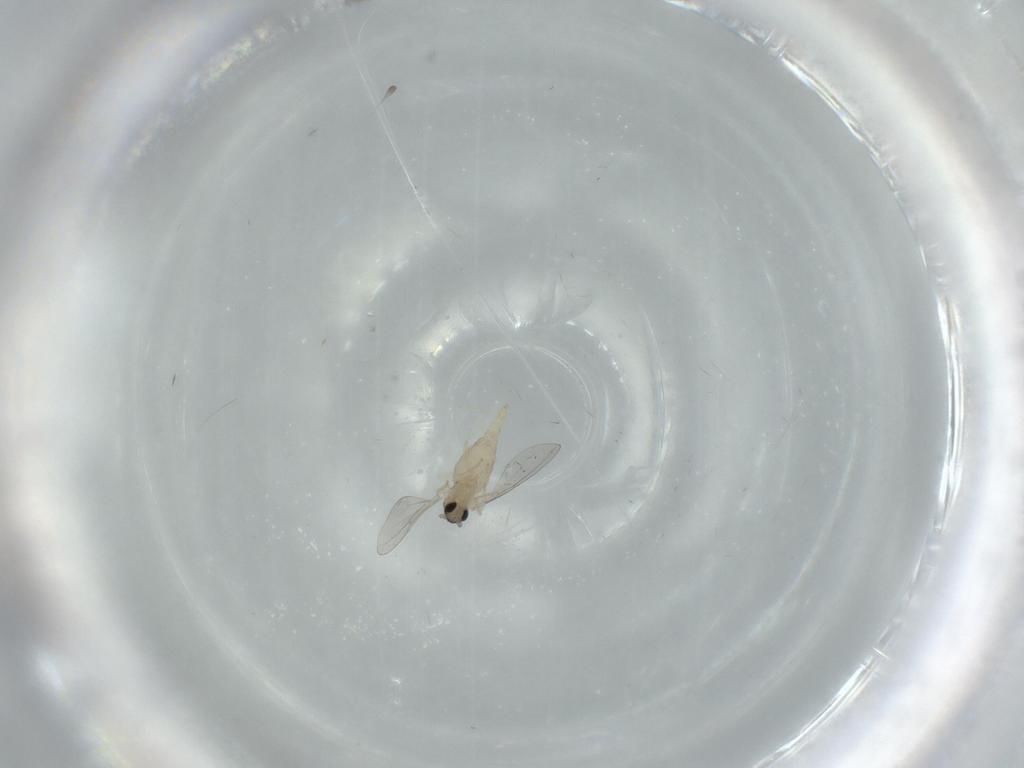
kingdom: Animalia
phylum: Arthropoda
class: Insecta
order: Diptera
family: Cecidomyiidae
